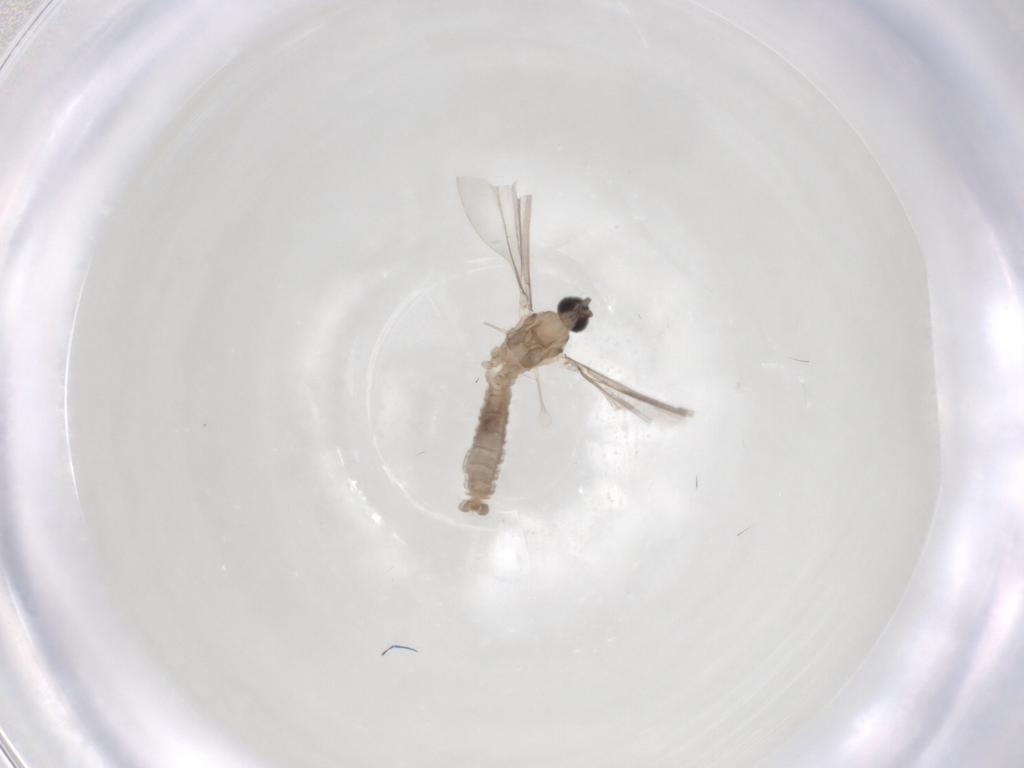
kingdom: Animalia
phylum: Arthropoda
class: Insecta
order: Diptera
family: Cecidomyiidae
